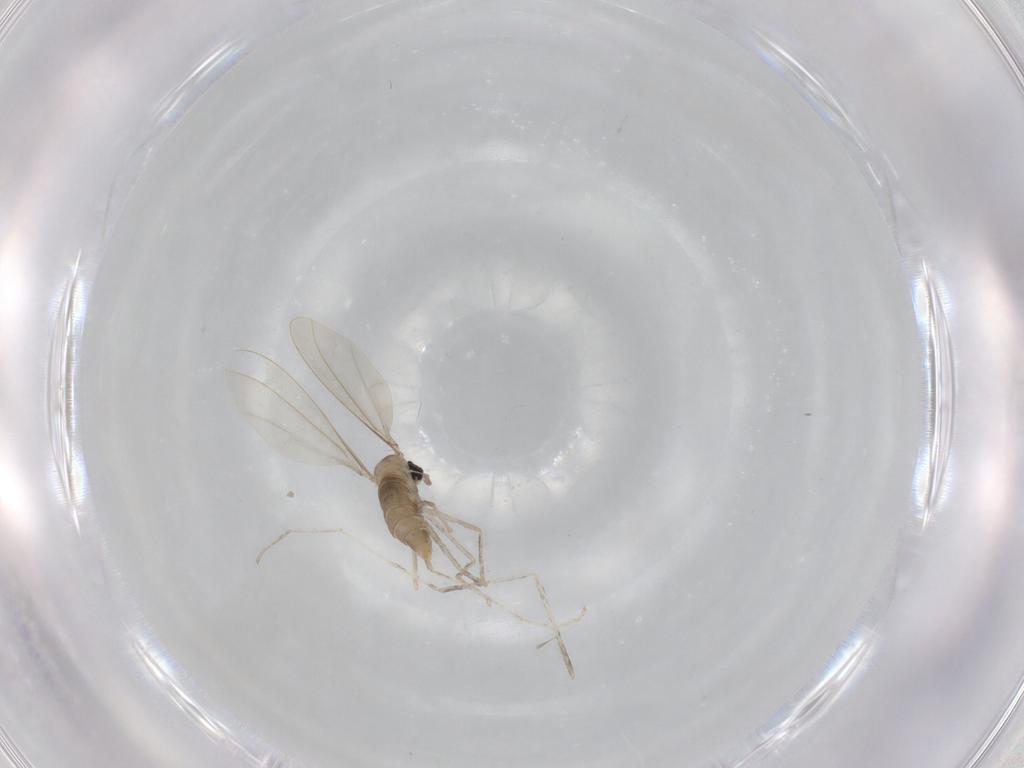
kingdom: Animalia
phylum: Arthropoda
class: Insecta
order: Diptera
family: Cecidomyiidae
